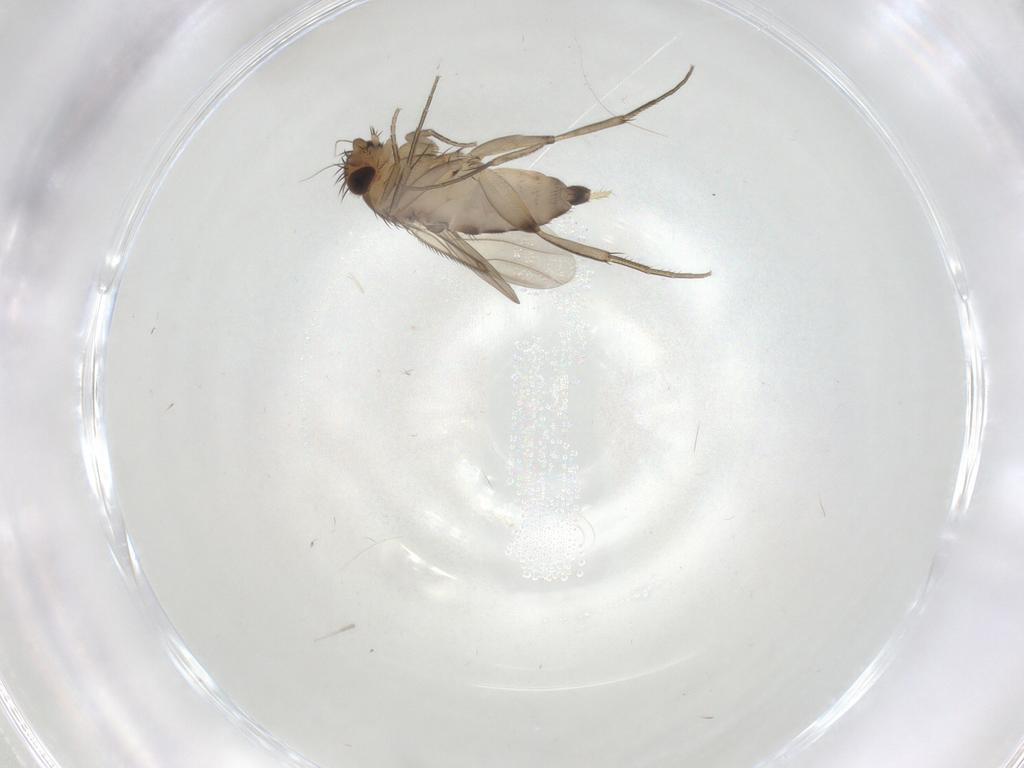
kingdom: Animalia
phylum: Arthropoda
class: Insecta
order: Diptera
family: Phoridae
